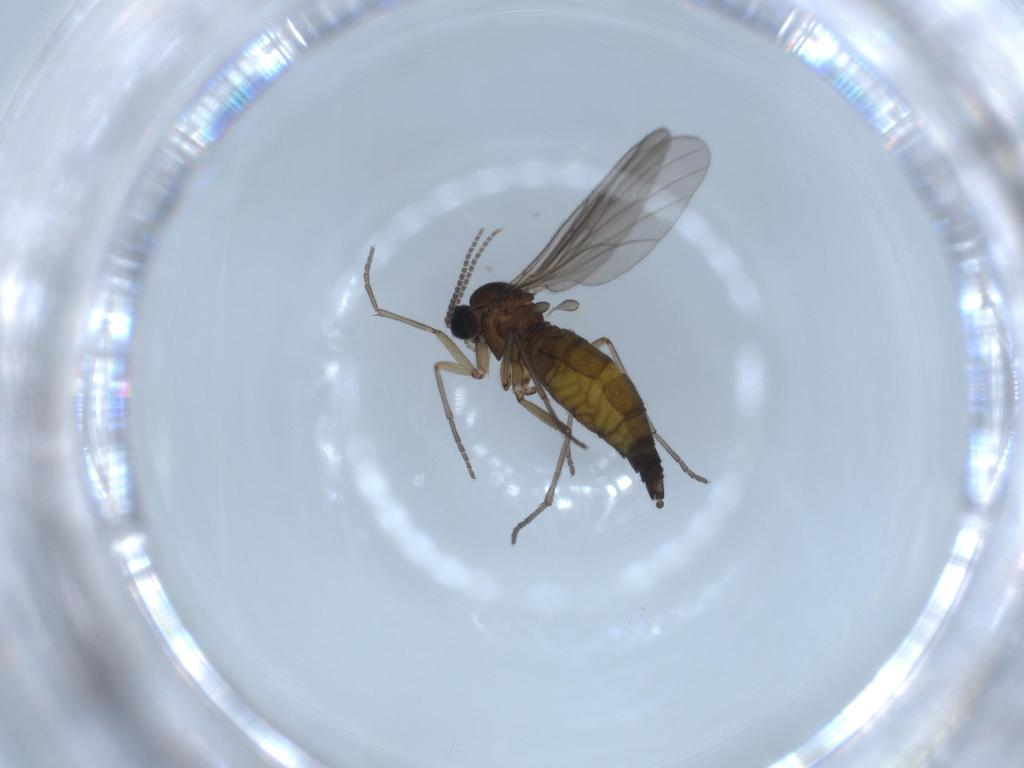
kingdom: Animalia
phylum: Arthropoda
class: Insecta
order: Diptera
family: Sciaridae
